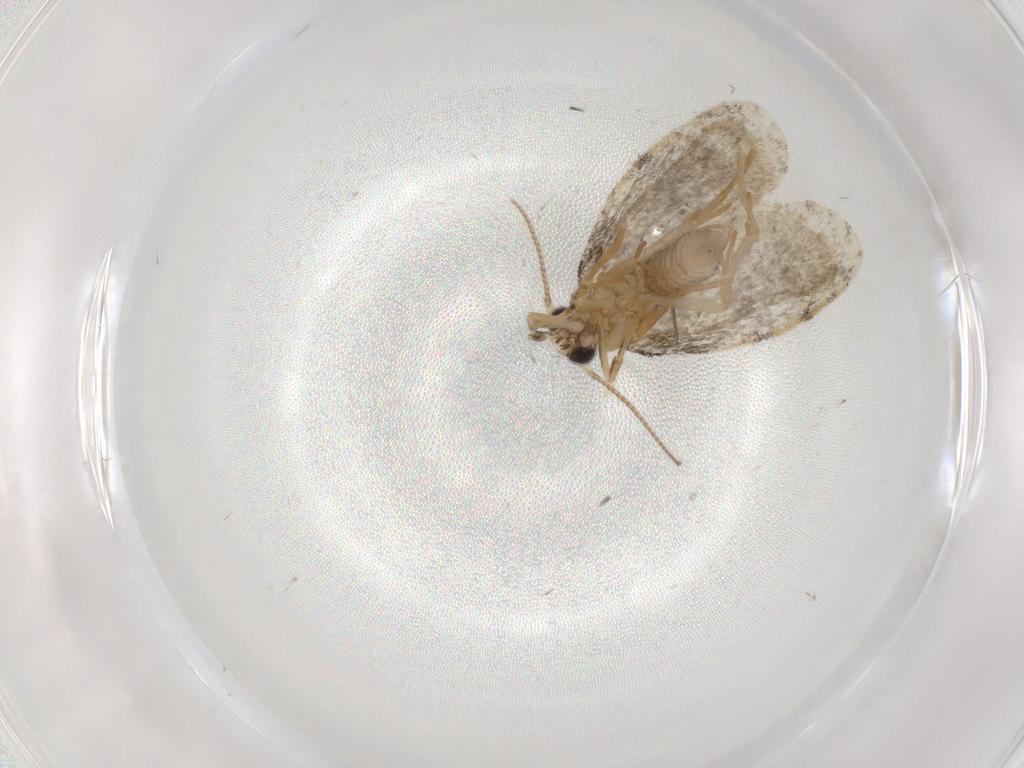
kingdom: Animalia
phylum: Arthropoda
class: Insecta
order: Lepidoptera
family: Psychidae
